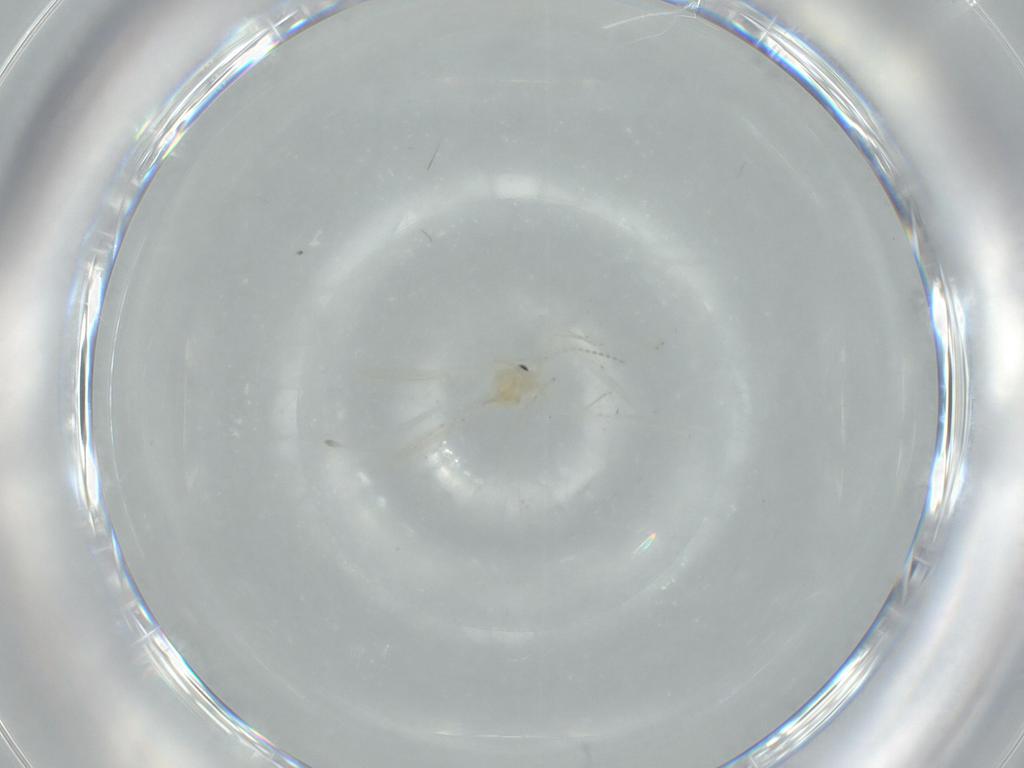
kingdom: Animalia
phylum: Arthropoda
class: Insecta
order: Diptera
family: Cecidomyiidae
